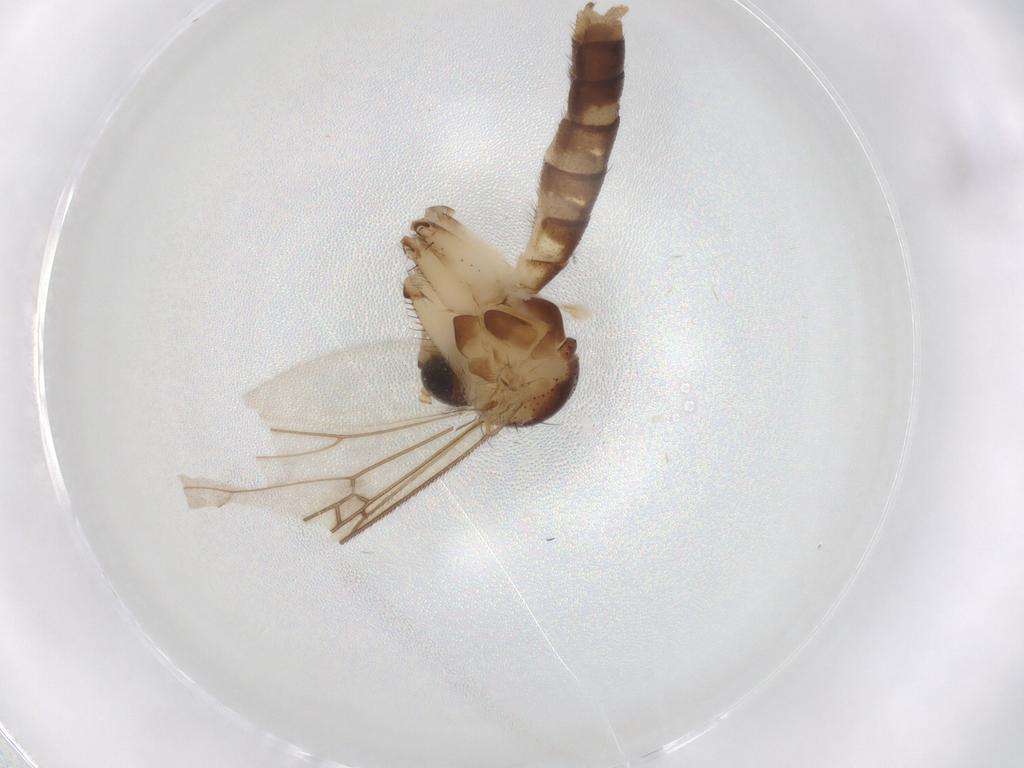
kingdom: Animalia
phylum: Arthropoda
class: Insecta
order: Diptera
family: Mycetophilidae
